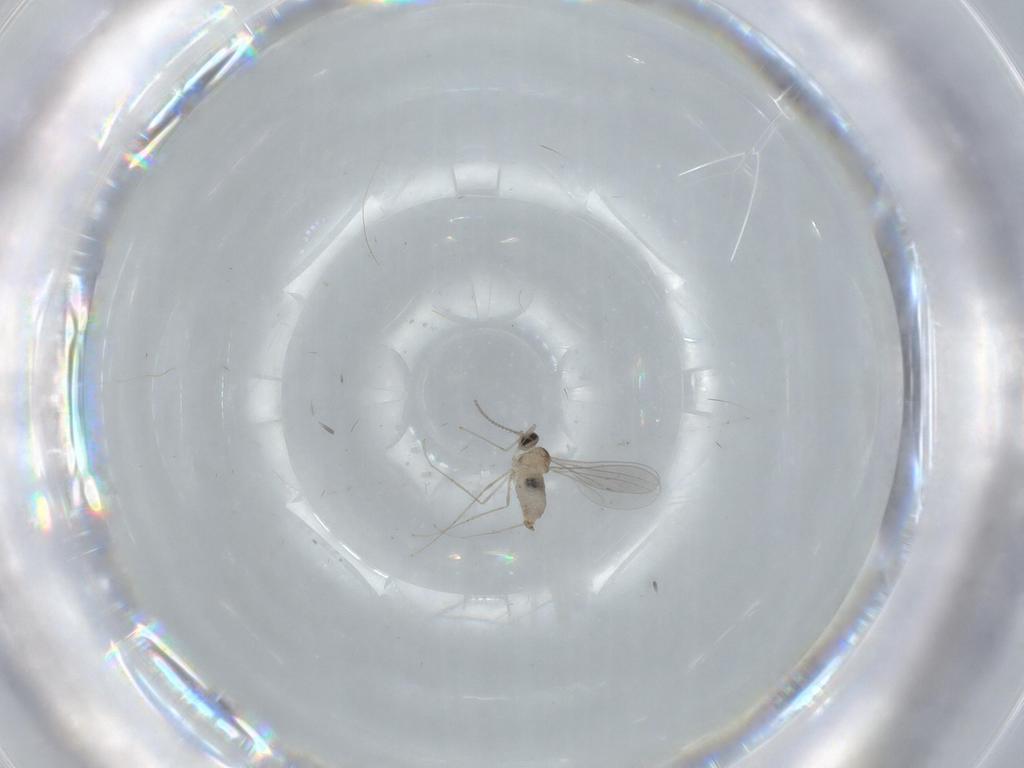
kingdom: Animalia
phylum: Arthropoda
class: Insecta
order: Diptera
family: Cecidomyiidae
